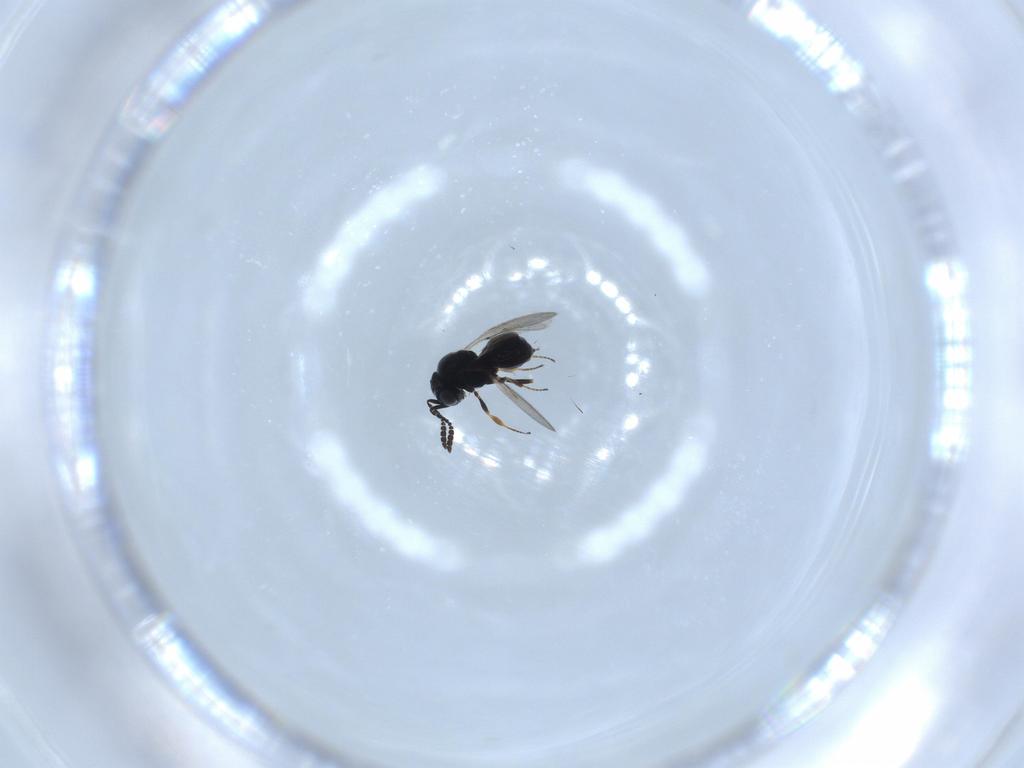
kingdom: Animalia
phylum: Arthropoda
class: Insecta
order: Hymenoptera
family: Scelionidae
